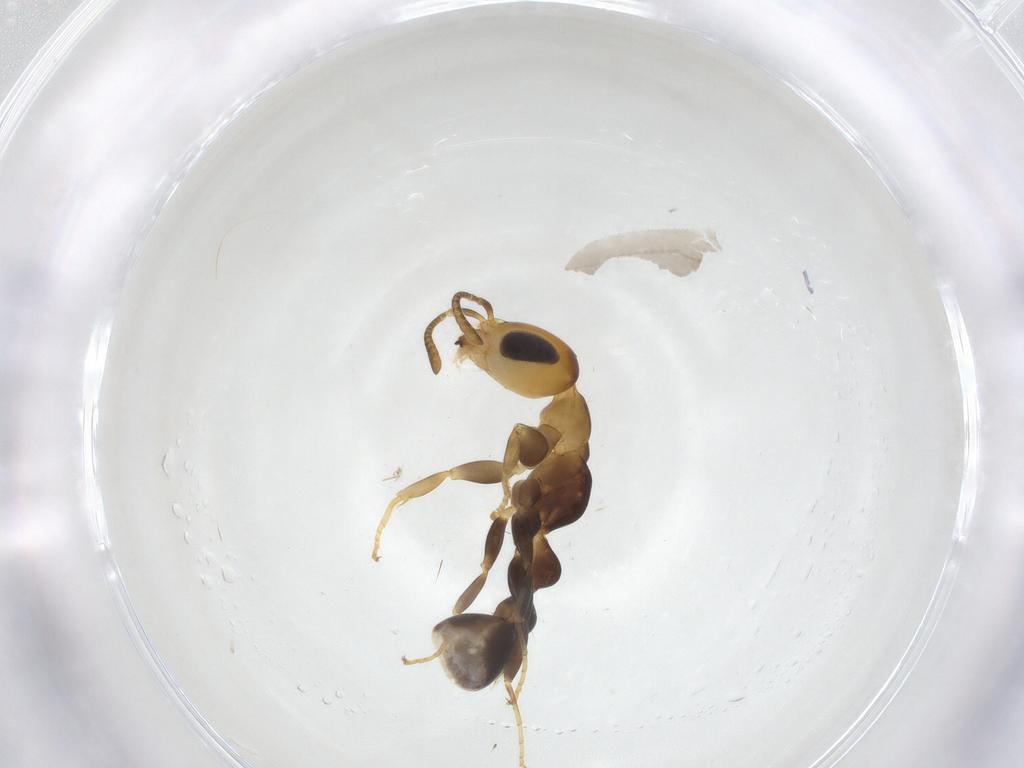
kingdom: Animalia
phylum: Arthropoda
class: Insecta
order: Hymenoptera
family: Formicidae
